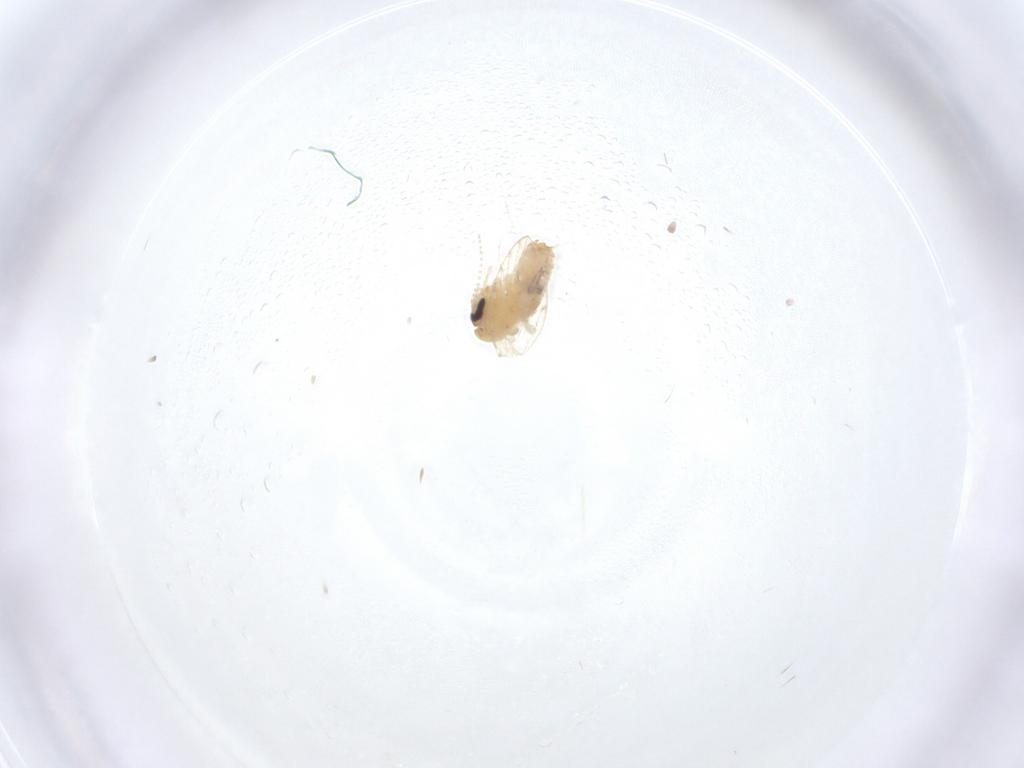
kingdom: Animalia
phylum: Arthropoda
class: Insecta
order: Diptera
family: Psychodidae
